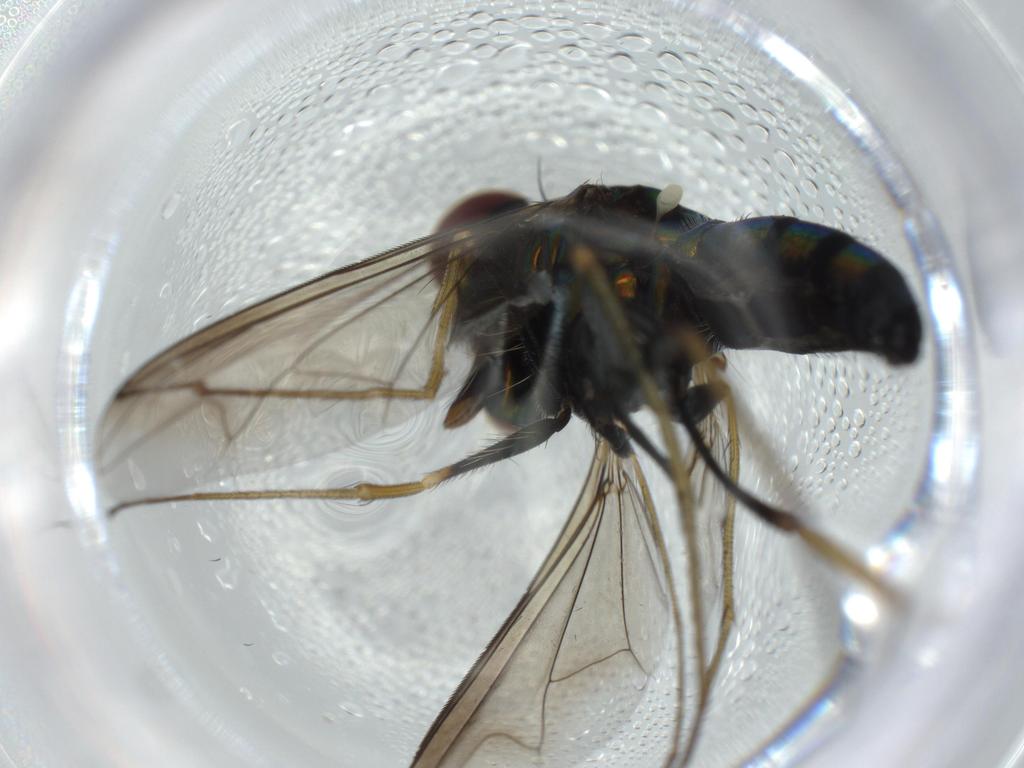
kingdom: Animalia
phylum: Arthropoda
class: Insecta
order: Diptera
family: Dolichopodidae
